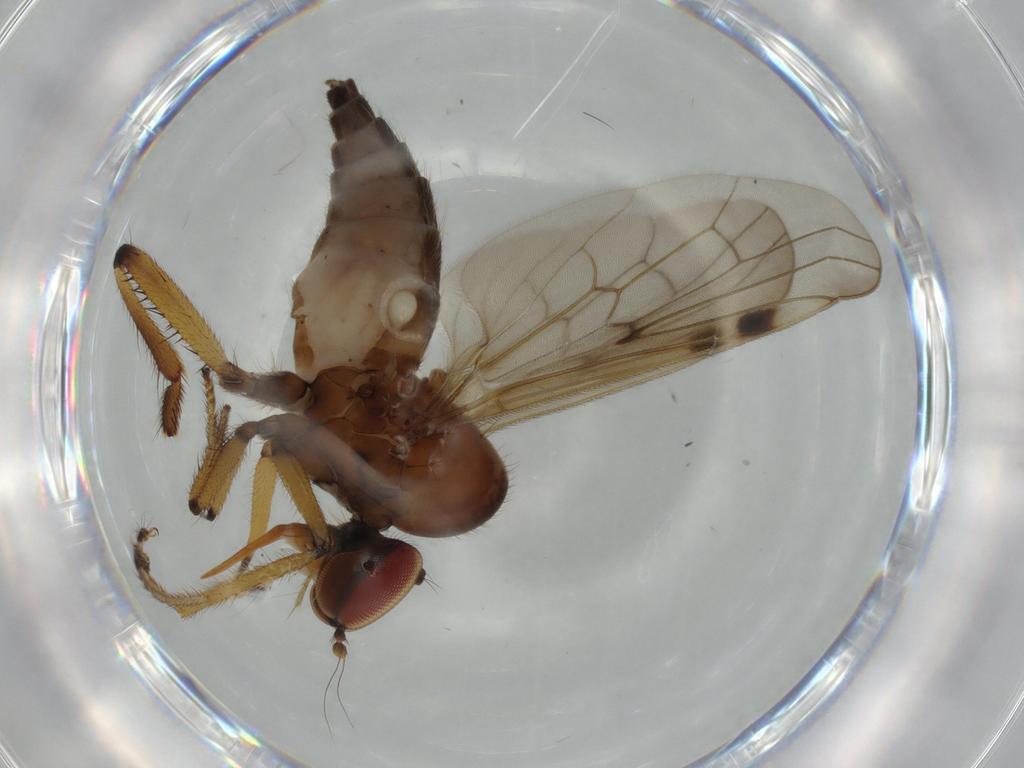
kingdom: Animalia
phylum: Arthropoda
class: Insecta
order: Diptera
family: Hybotidae
